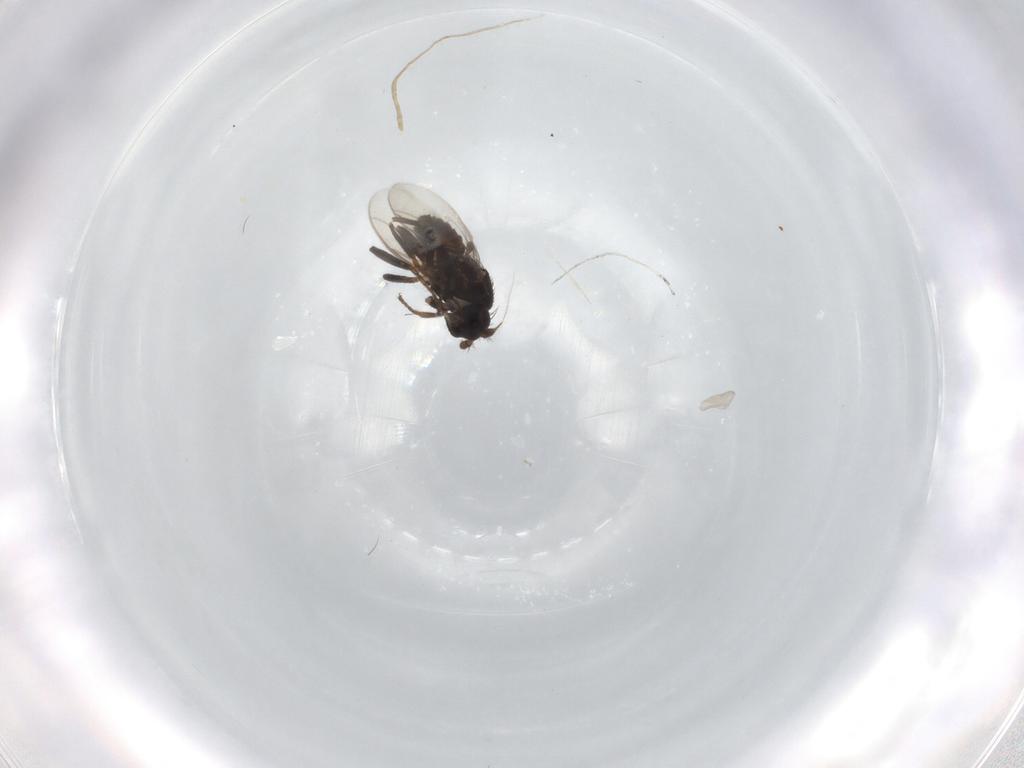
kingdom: Animalia
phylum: Arthropoda
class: Insecta
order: Diptera
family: Sphaeroceridae
